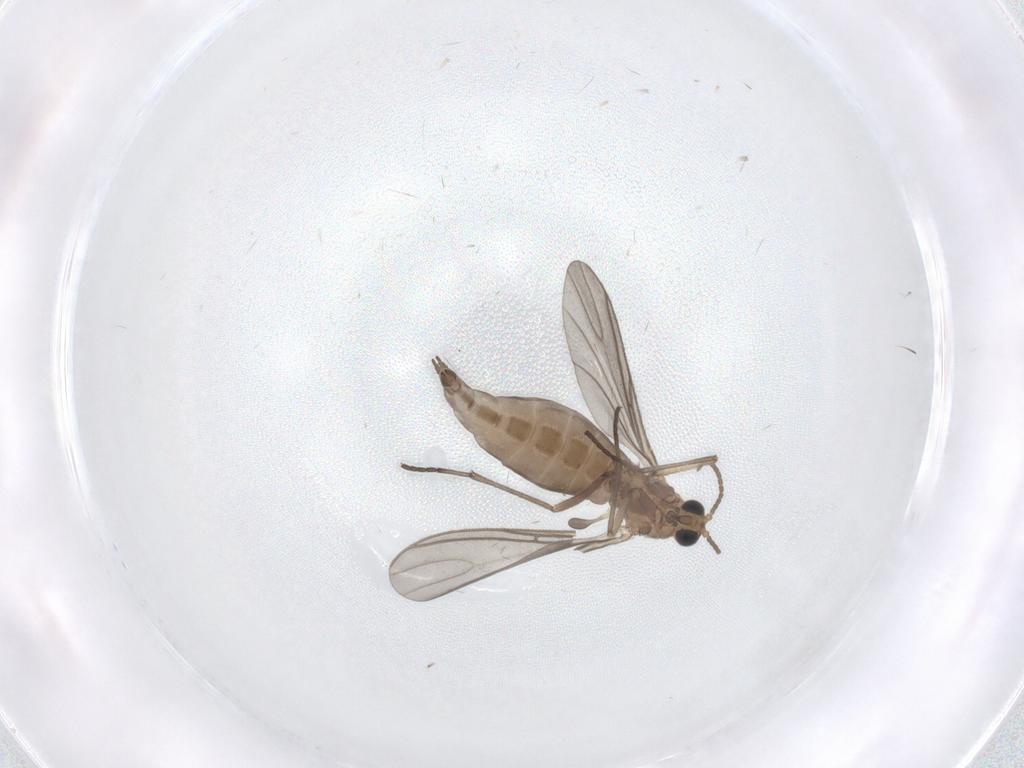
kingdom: Animalia
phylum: Arthropoda
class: Insecta
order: Diptera
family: Sciaridae
